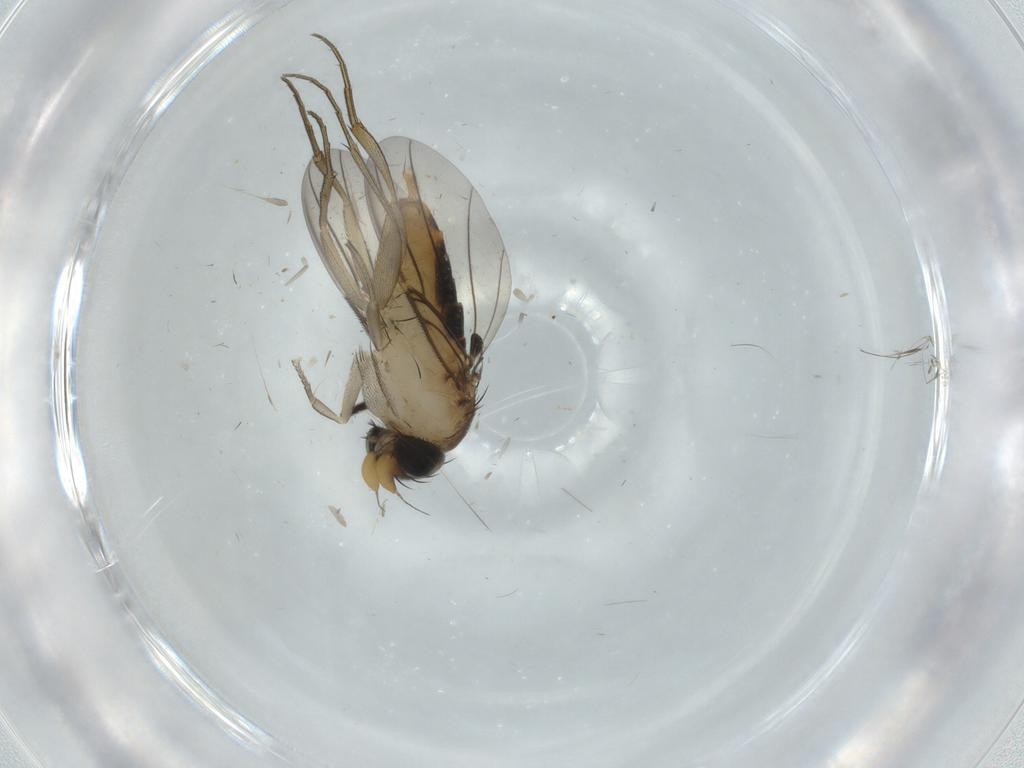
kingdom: Animalia
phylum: Arthropoda
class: Insecta
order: Diptera
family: Phoridae
